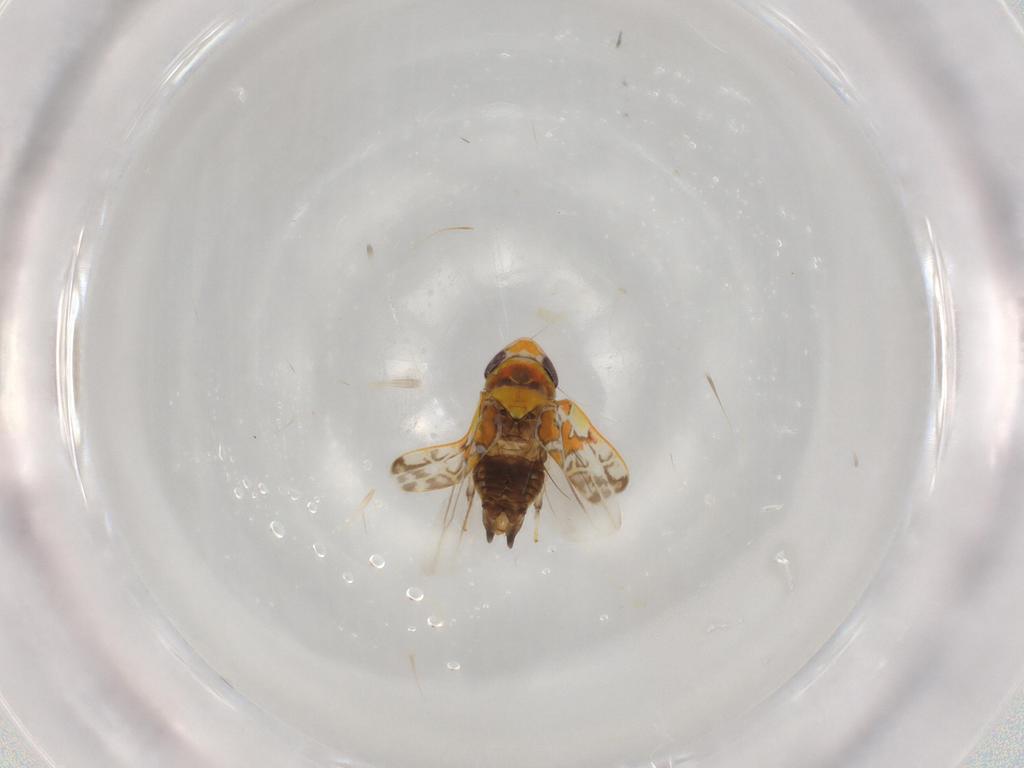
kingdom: Animalia
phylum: Arthropoda
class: Insecta
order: Hemiptera
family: Cicadellidae
